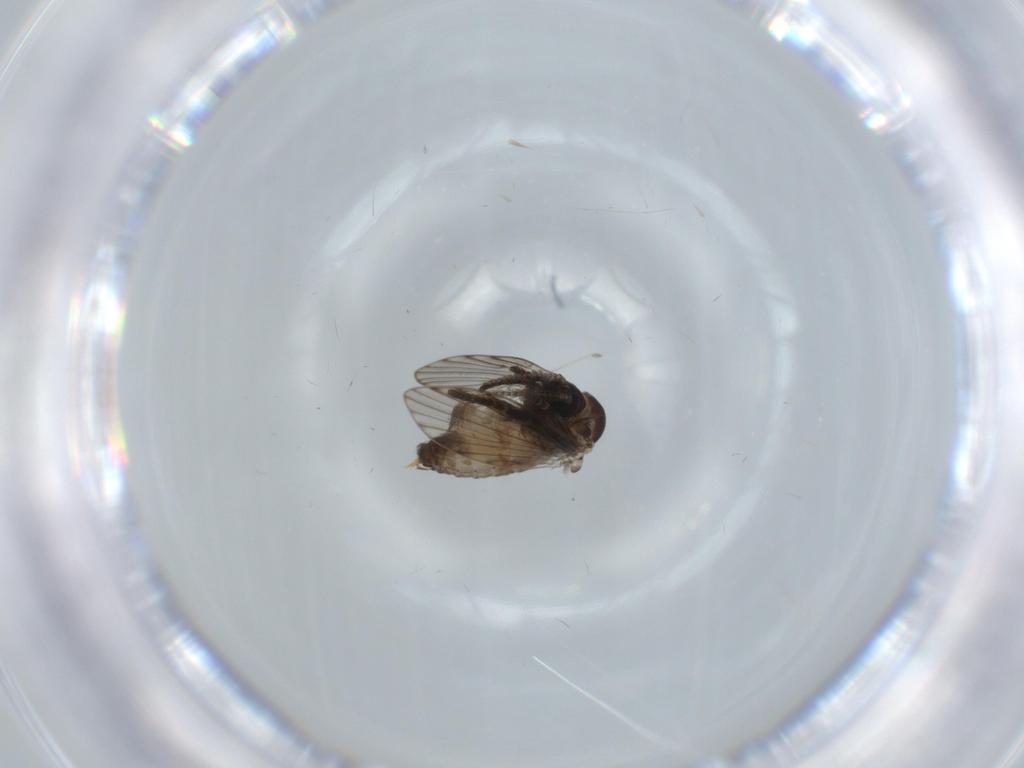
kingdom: Animalia
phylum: Arthropoda
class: Insecta
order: Diptera
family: Psychodidae
